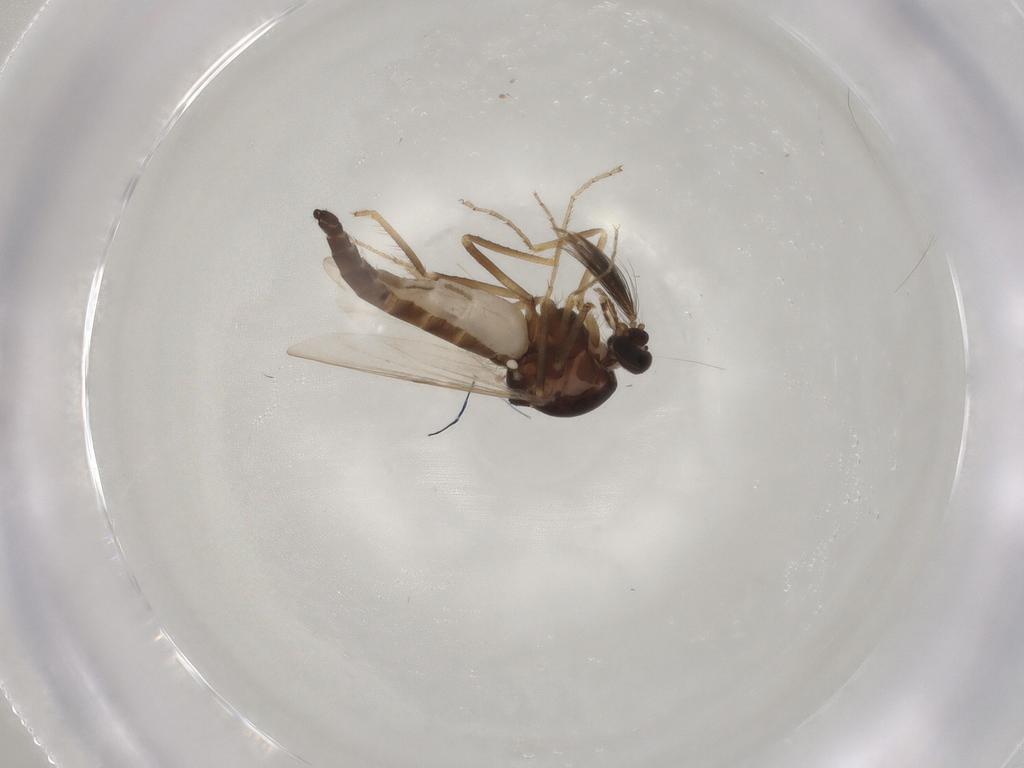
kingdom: Animalia
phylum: Arthropoda
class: Insecta
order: Diptera
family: Ceratopogonidae
